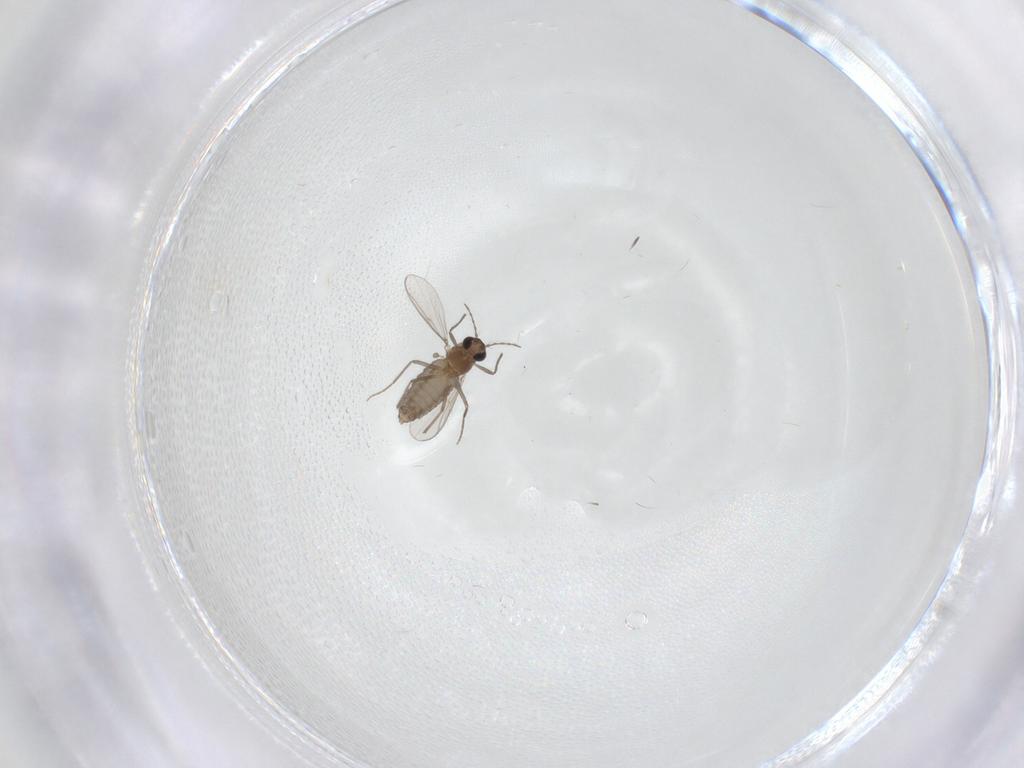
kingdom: Animalia
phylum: Arthropoda
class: Insecta
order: Diptera
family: Chironomidae
